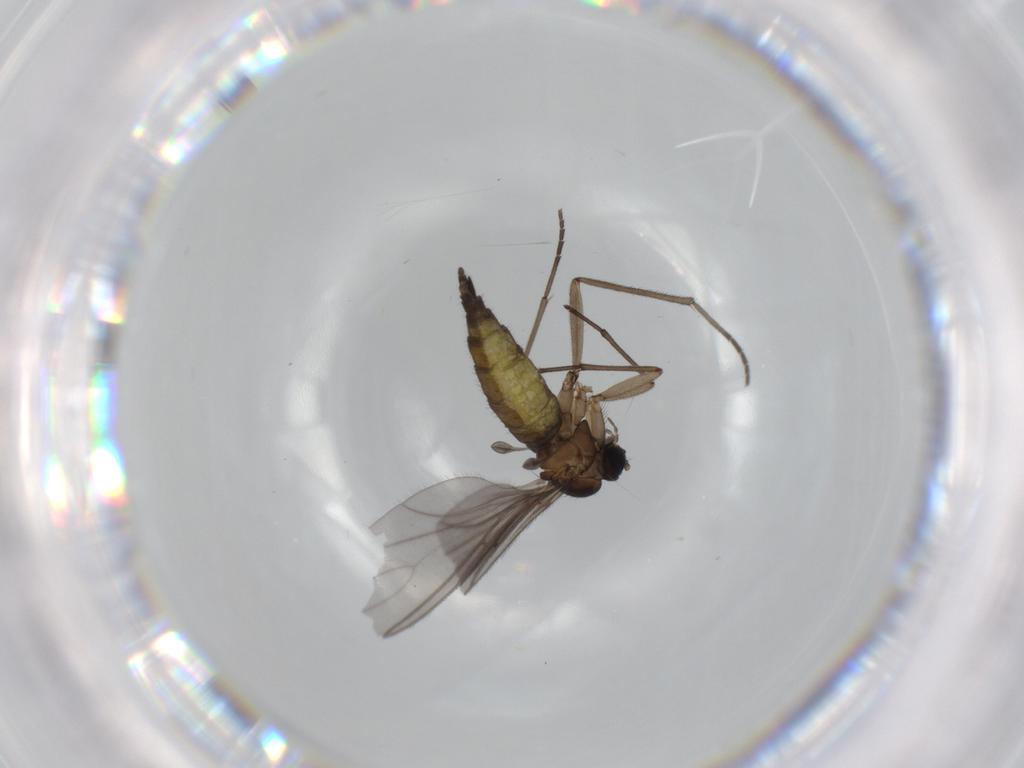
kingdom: Animalia
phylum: Arthropoda
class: Insecta
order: Diptera
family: Sciaridae
